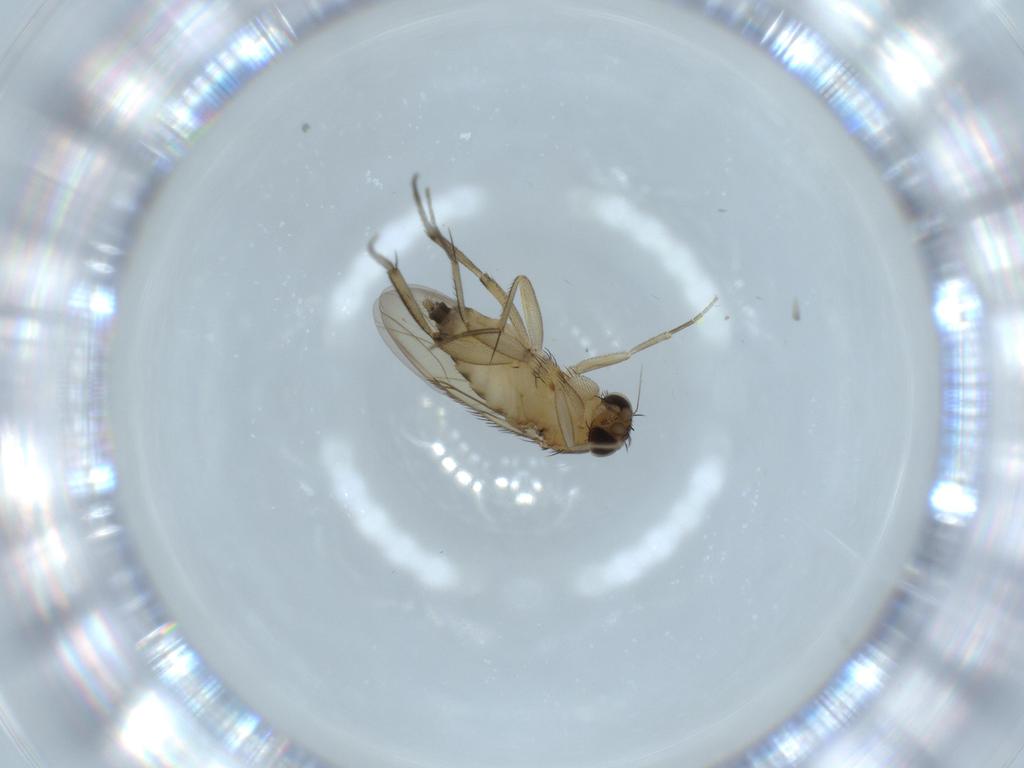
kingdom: Animalia
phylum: Arthropoda
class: Insecta
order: Diptera
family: Phoridae
